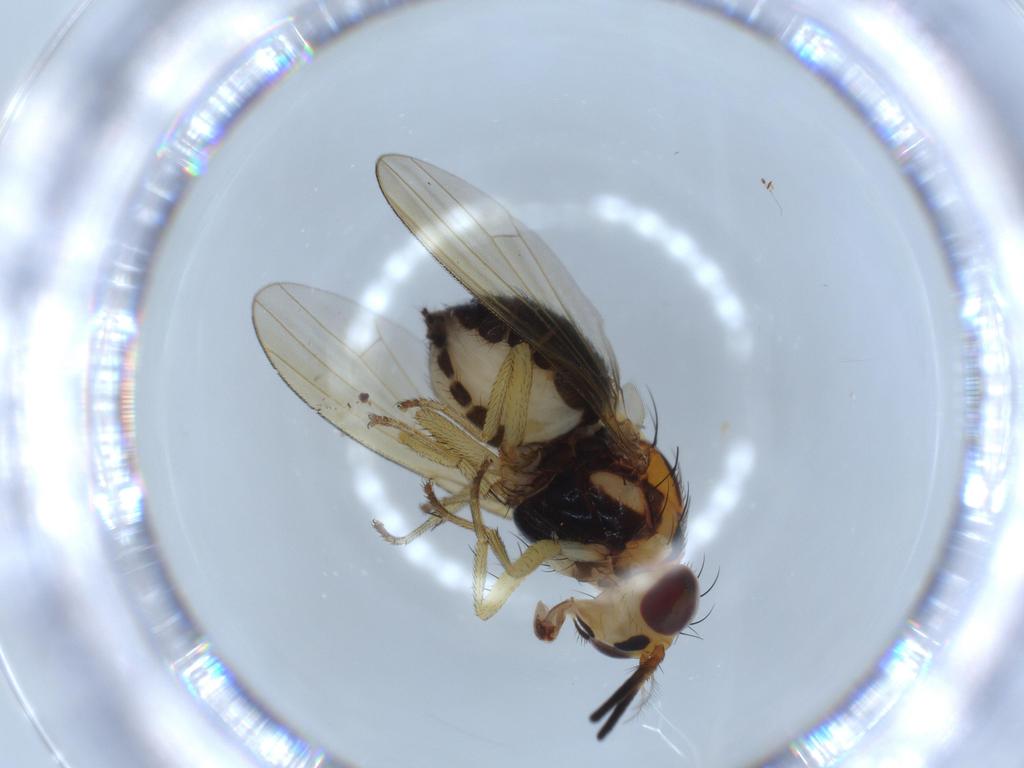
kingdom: Animalia
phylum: Arthropoda
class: Insecta
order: Diptera
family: Lauxaniidae
